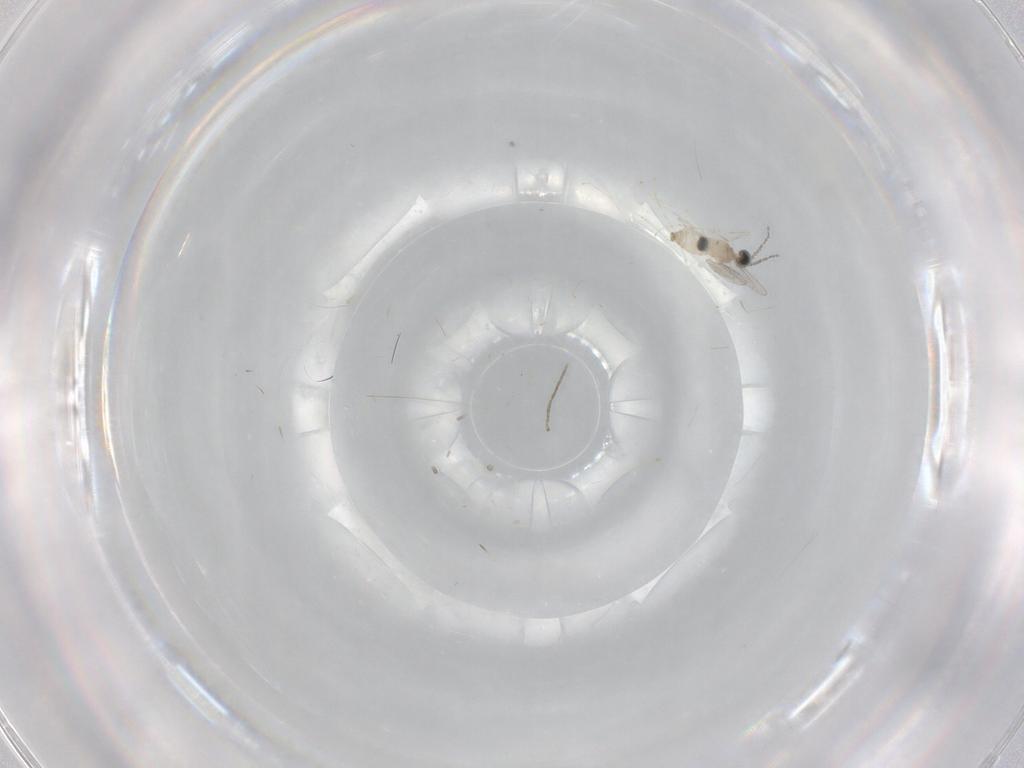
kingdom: Animalia
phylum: Arthropoda
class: Insecta
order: Diptera
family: Cecidomyiidae
